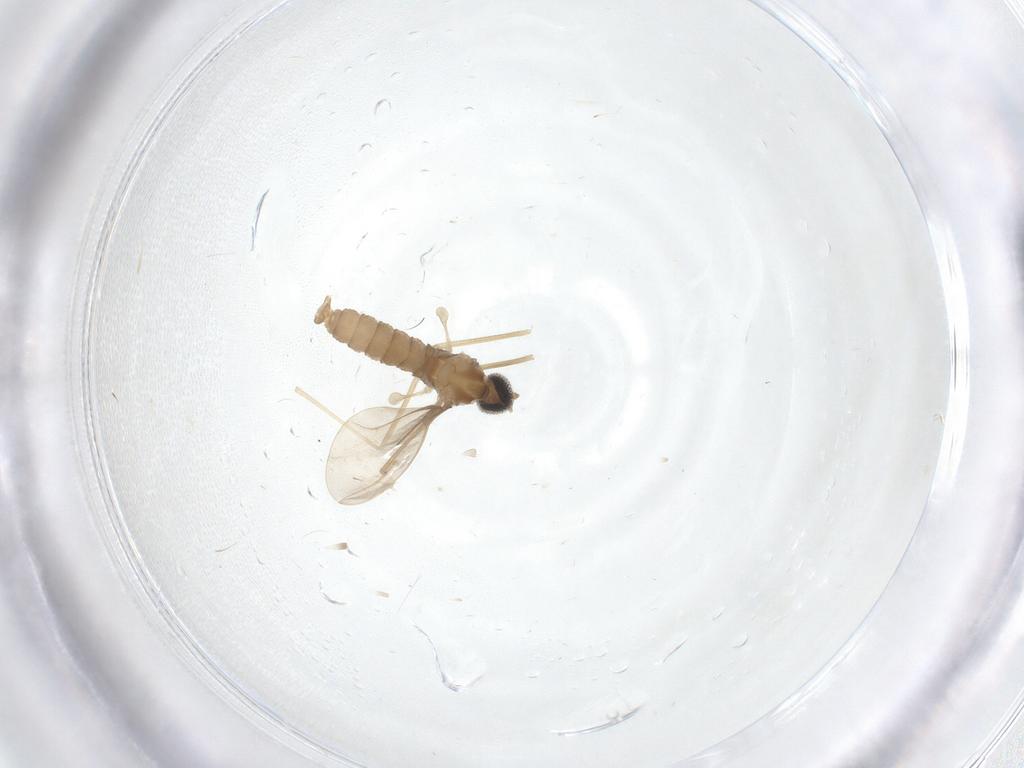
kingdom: Animalia
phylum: Arthropoda
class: Insecta
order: Diptera
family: Cecidomyiidae
